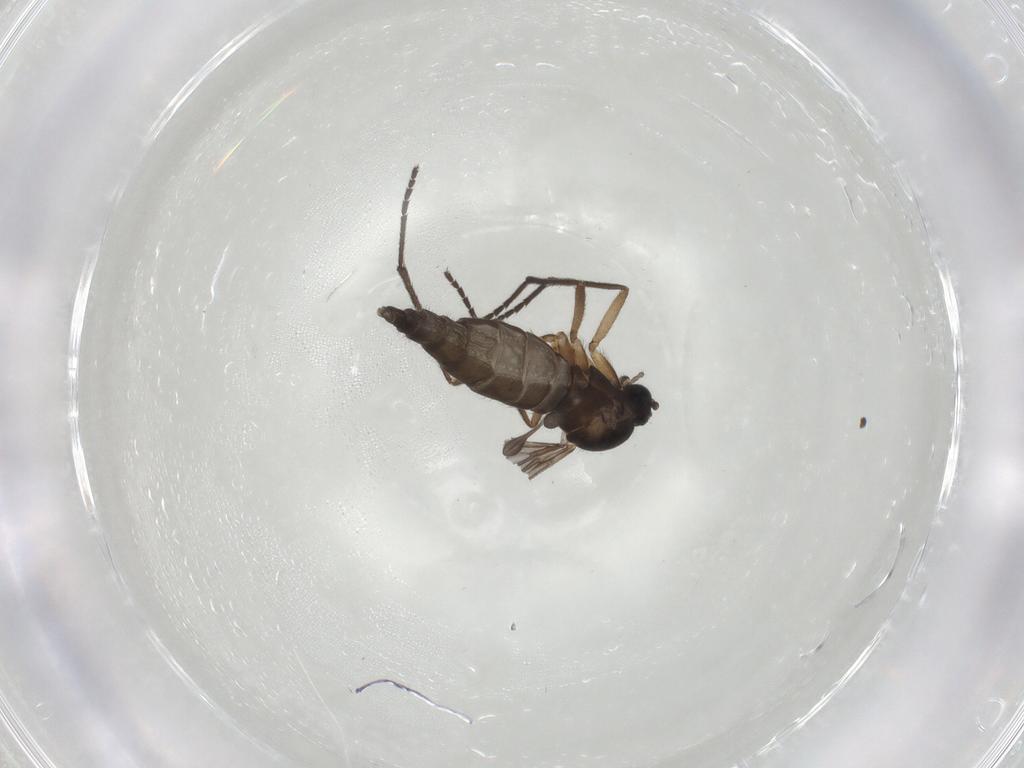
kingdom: Animalia
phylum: Arthropoda
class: Insecta
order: Diptera
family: Sciaridae
